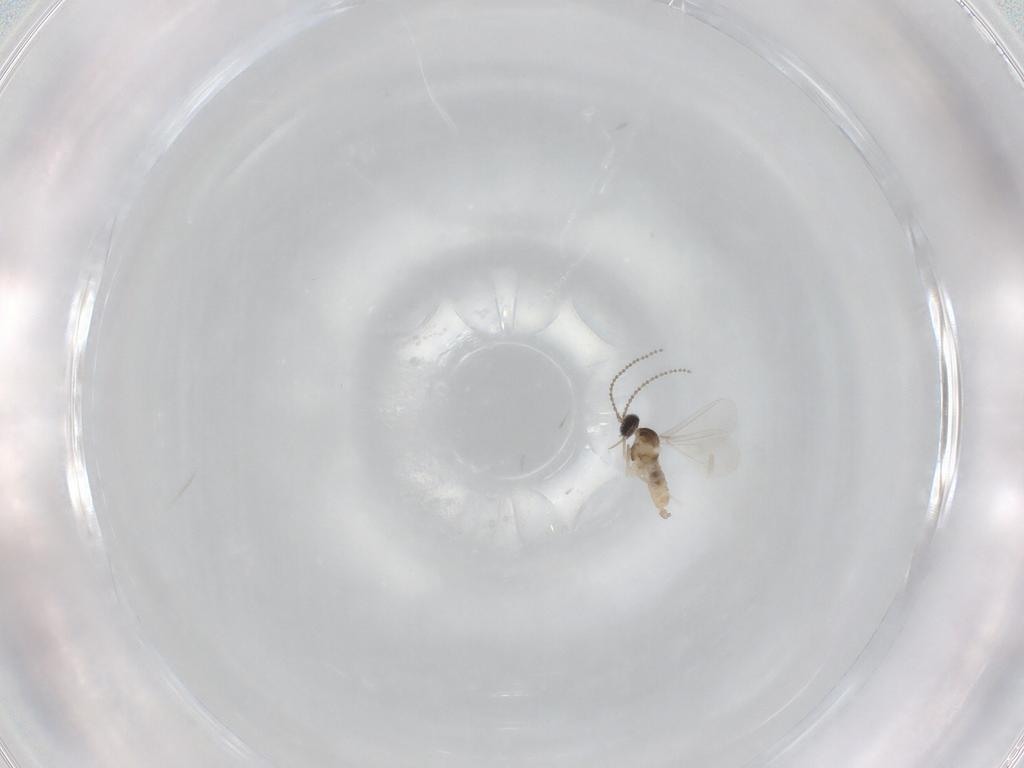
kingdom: Animalia
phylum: Arthropoda
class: Insecta
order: Diptera
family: Cecidomyiidae
